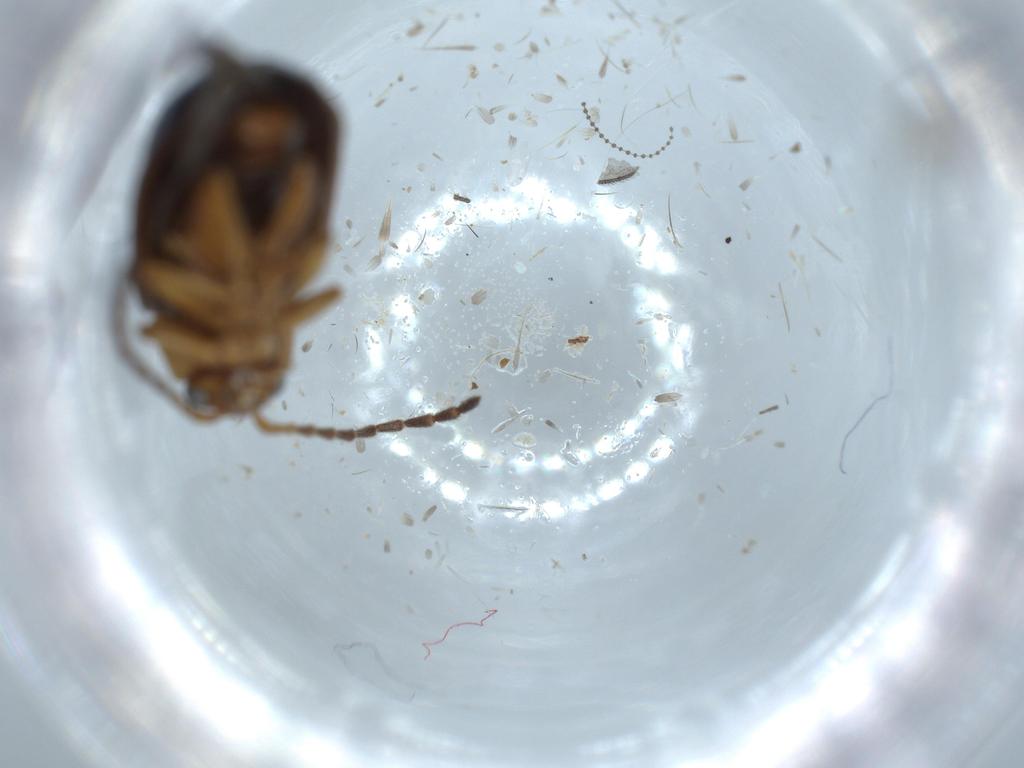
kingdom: Animalia
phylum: Arthropoda
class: Insecta
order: Coleoptera
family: Chrysomelidae
